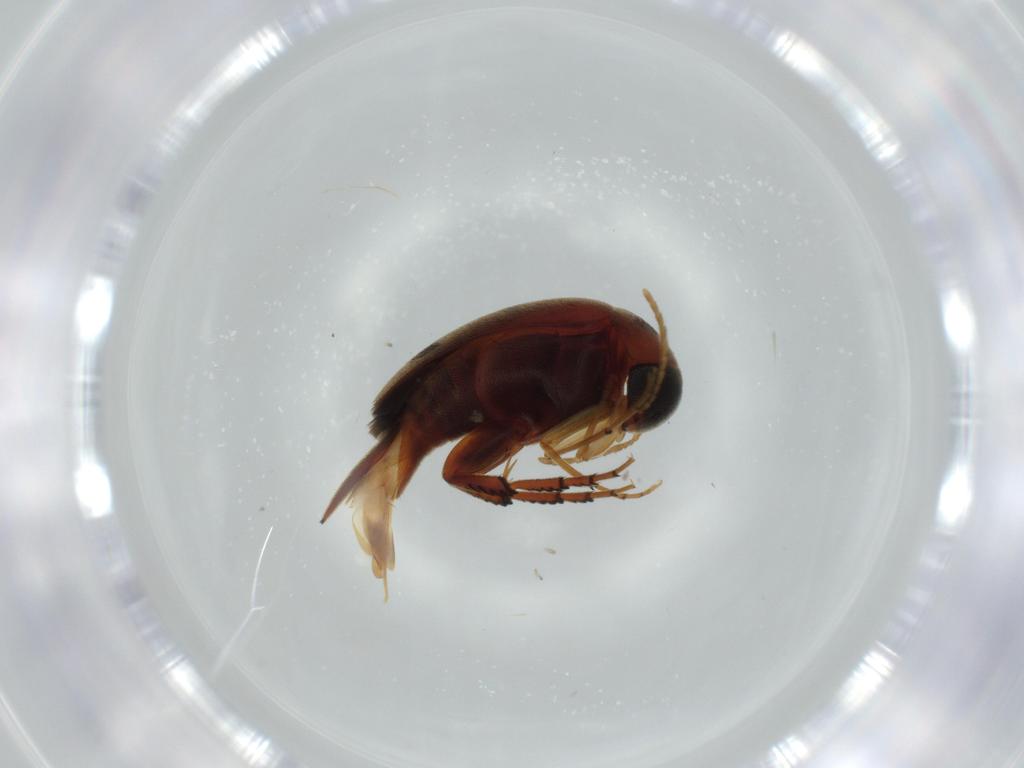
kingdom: Animalia
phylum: Arthropoda
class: Insecta
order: Coleoptera
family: Mordellidae
